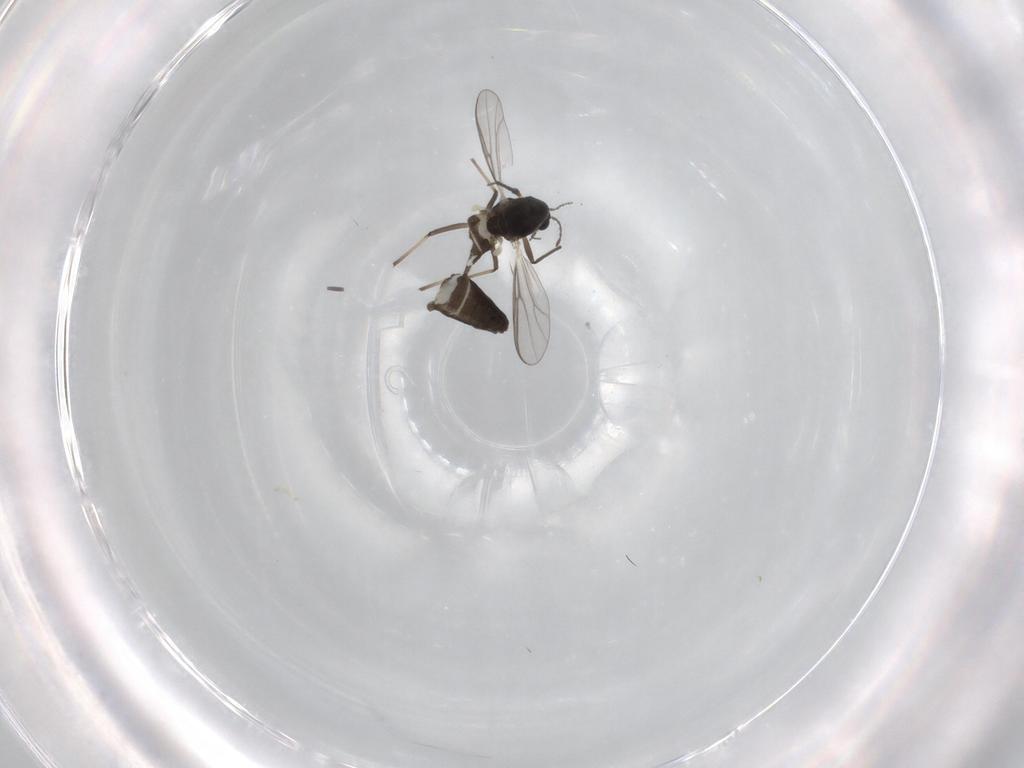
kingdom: Animalia
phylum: Arthropoda
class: Insecta
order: Diptera
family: Chironomidae
